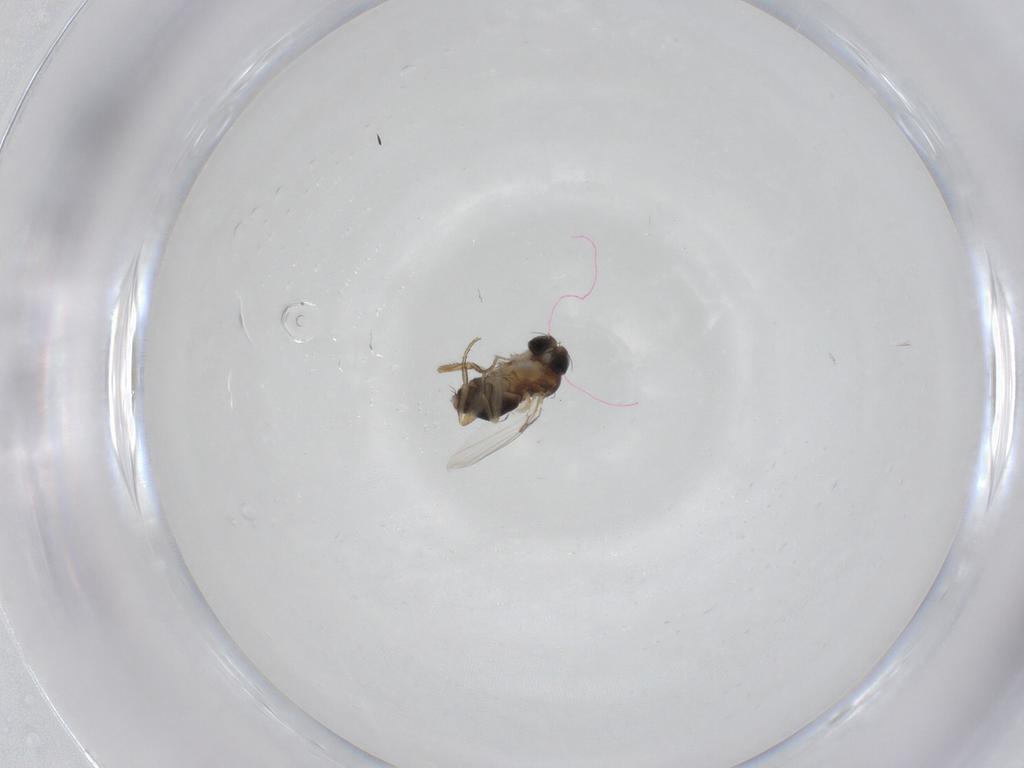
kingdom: Animalia
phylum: Arthropoda
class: Insecta
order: Diptera
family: Phoridae
